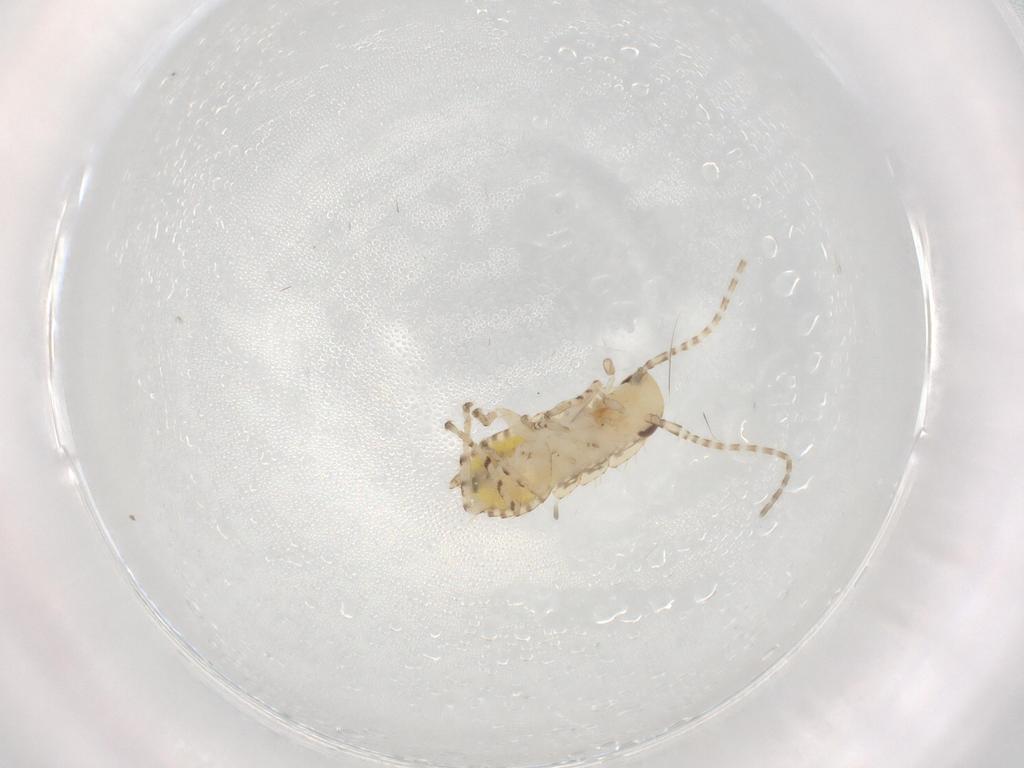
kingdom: Animalia
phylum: Arthropoda
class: Insecta
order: Blattodea
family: Ectobiidae
